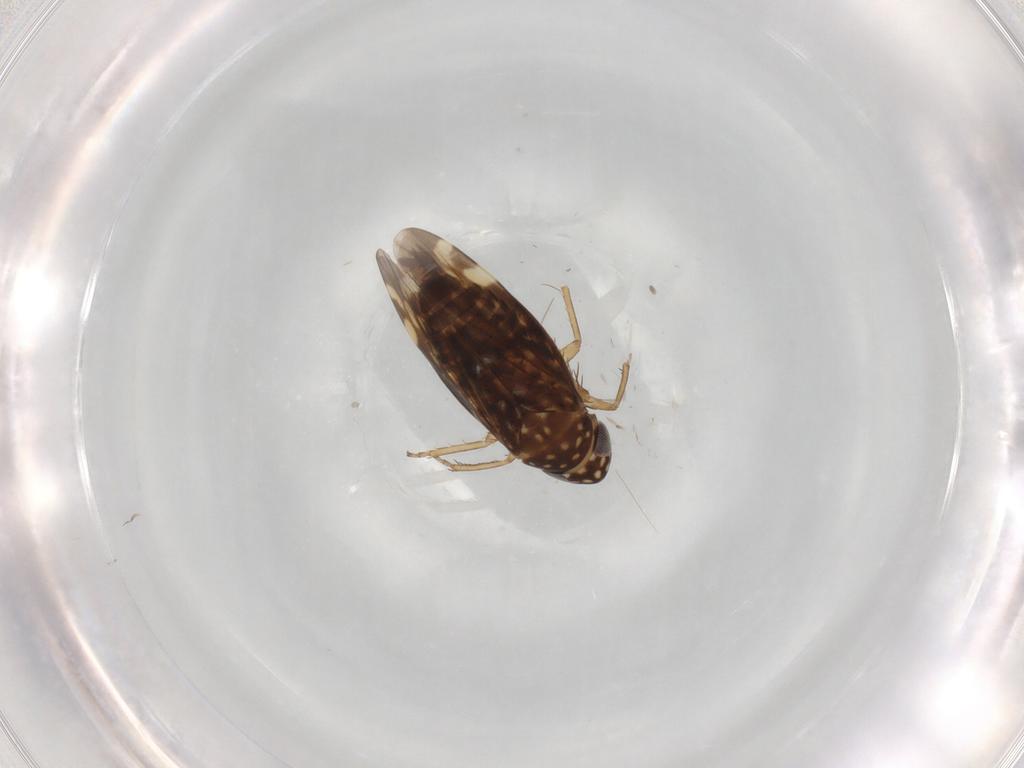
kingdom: Animalia
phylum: Arthropoda
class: Insecta
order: Hemiptera
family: Cicadellidae
